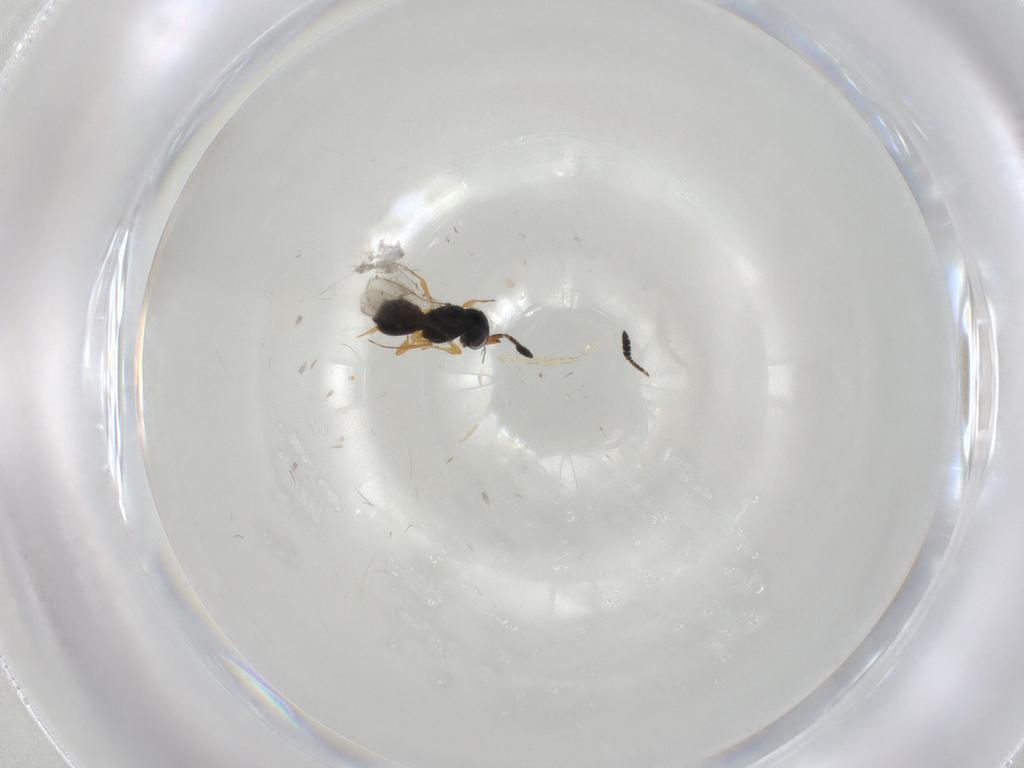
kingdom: Animalia
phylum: Arthropoda
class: Insecta
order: Hymenoptera
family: Scelionidae
